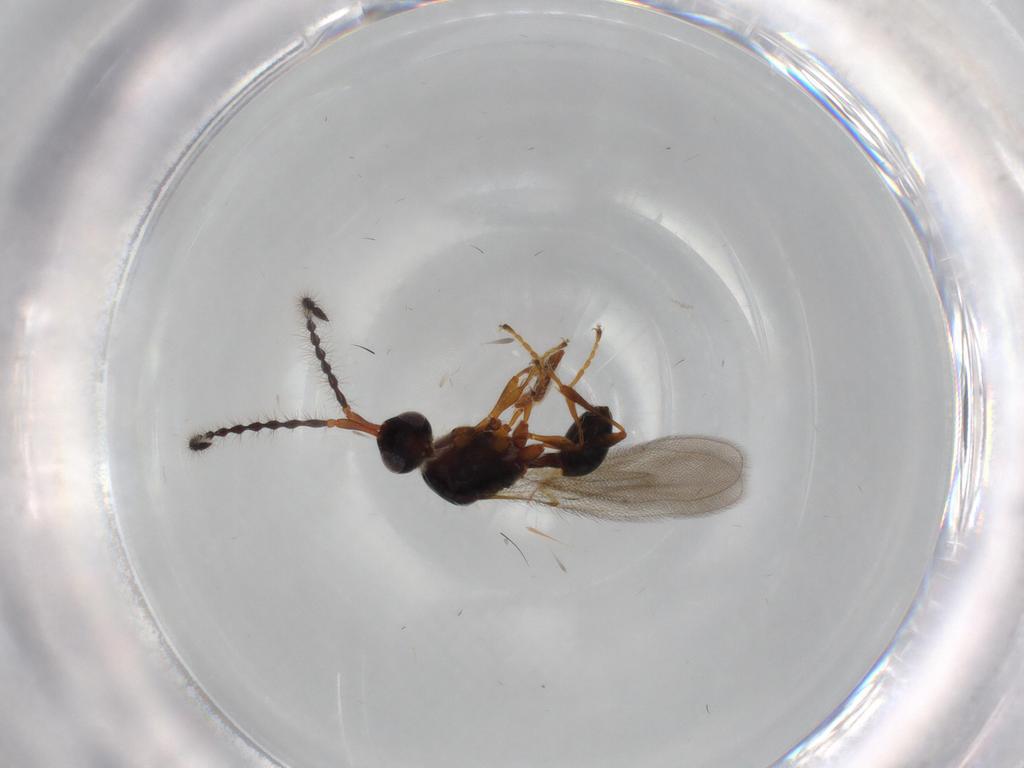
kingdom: Animalia
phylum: Arthropoda
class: Insecta
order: Hymenoptera
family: Diapriidae
